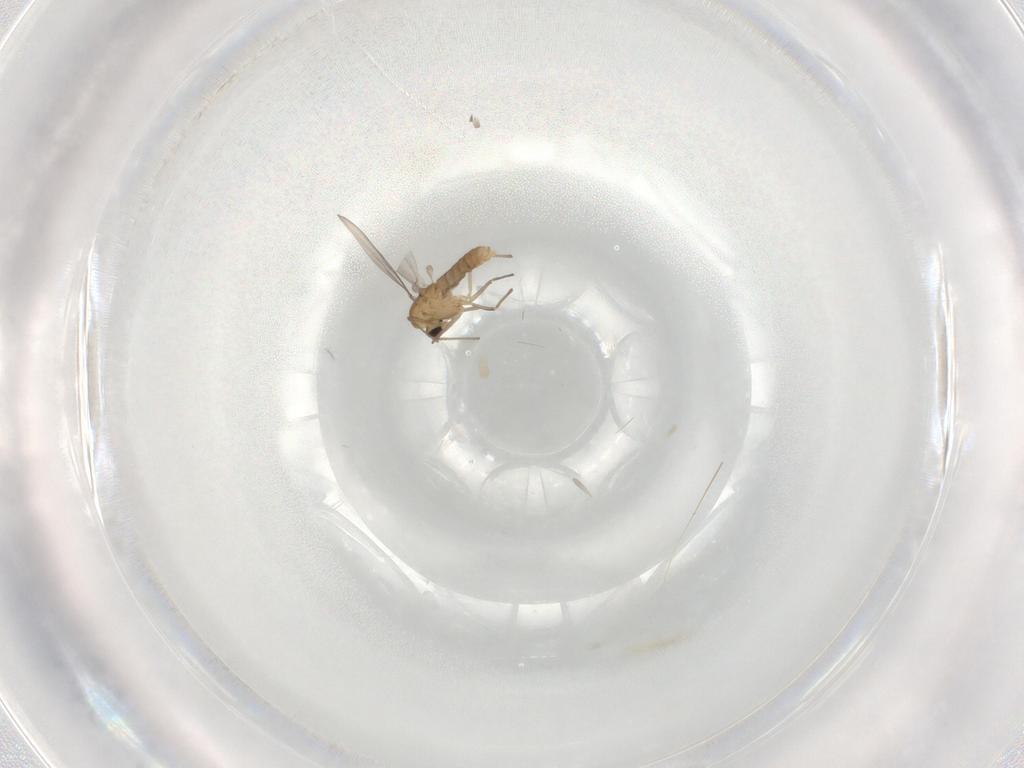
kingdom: Animalia
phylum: Arthropoda
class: Insecta
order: Diptera
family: Chironomidae
